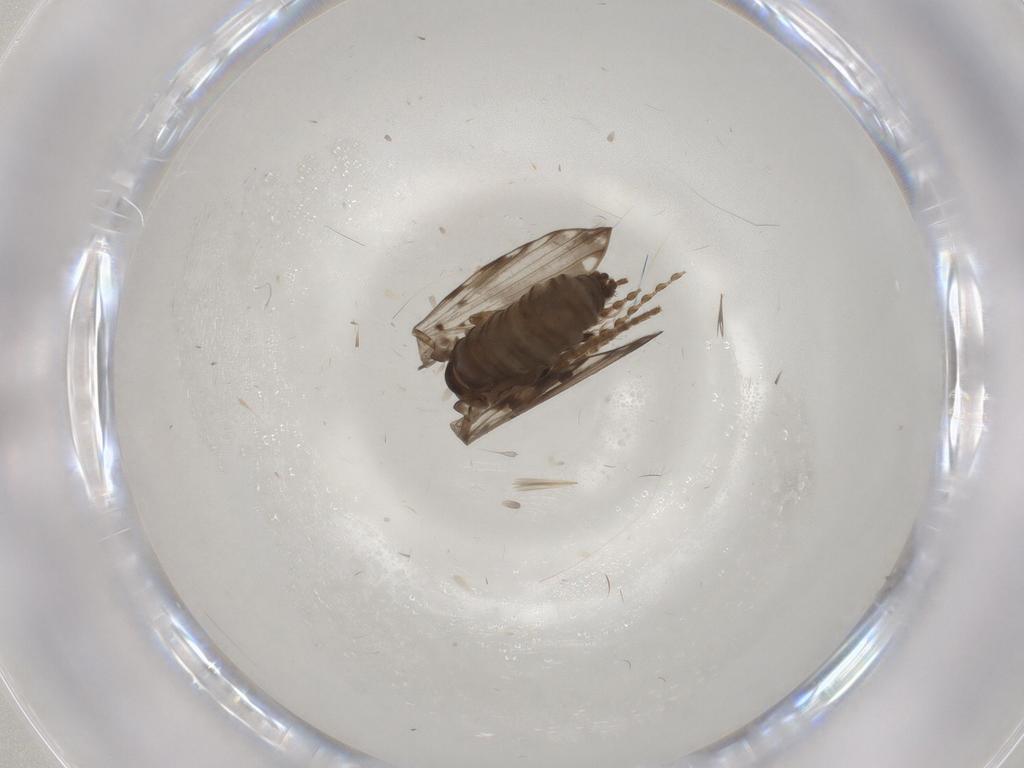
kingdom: Animalia
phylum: Arthropoda
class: Insecta
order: Diptera
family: Psychodidae
